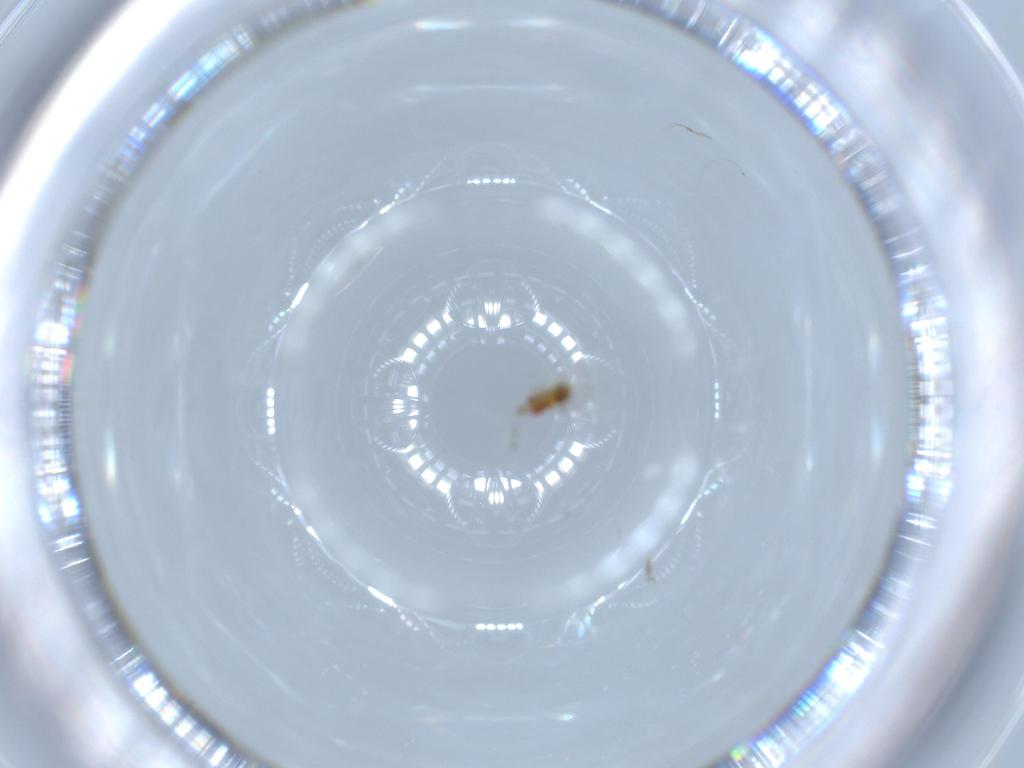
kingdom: Animalia
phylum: Arthropoda
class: Insecta
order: Hymenoptera
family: Trichogrammatidae
